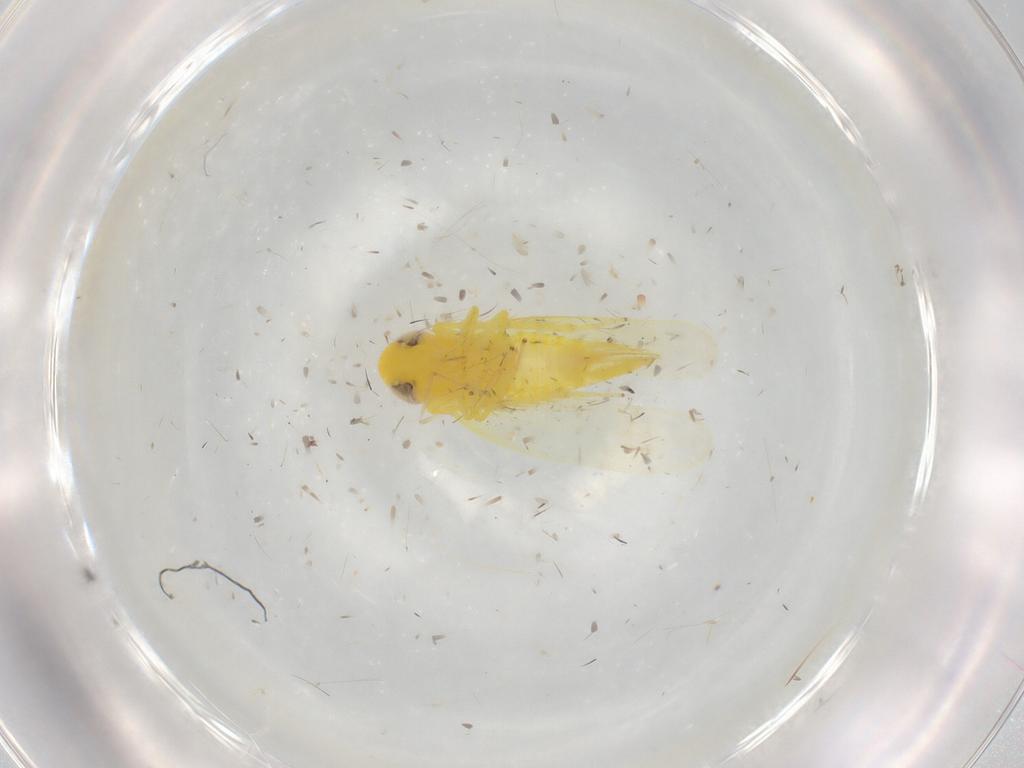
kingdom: Animalia
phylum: Arthropoda
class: Insecta
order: Hemiptera
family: Cicadellidae
